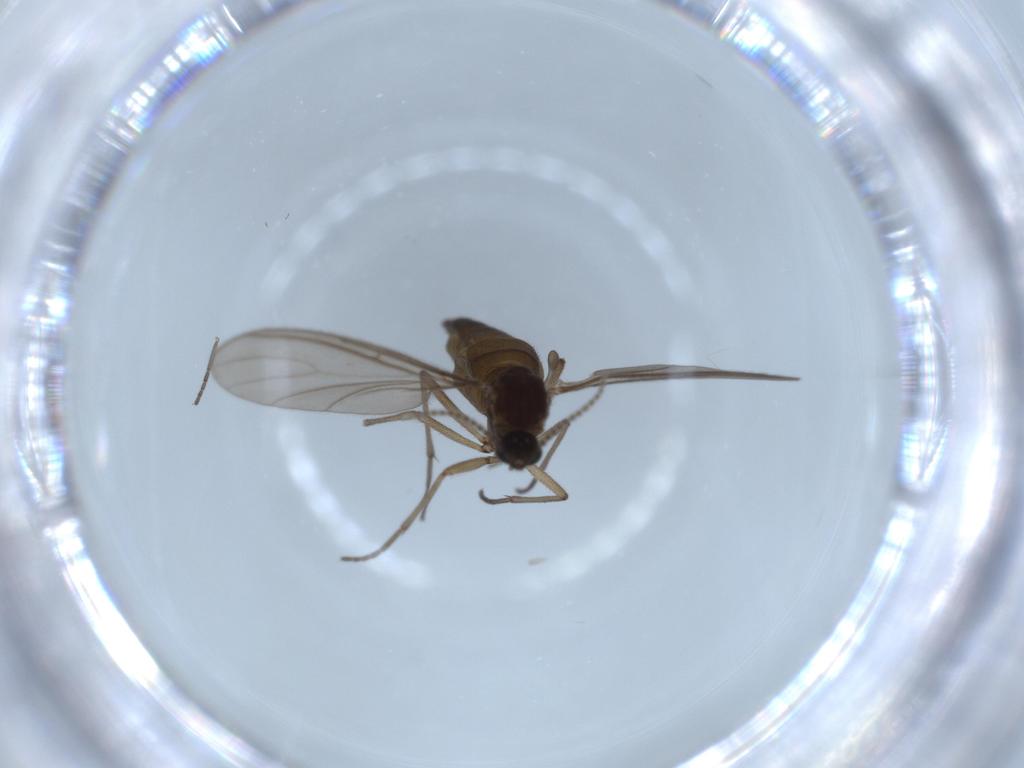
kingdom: Animalia
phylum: Arthropoda
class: Insecta
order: Diptera
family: Sciaridae
